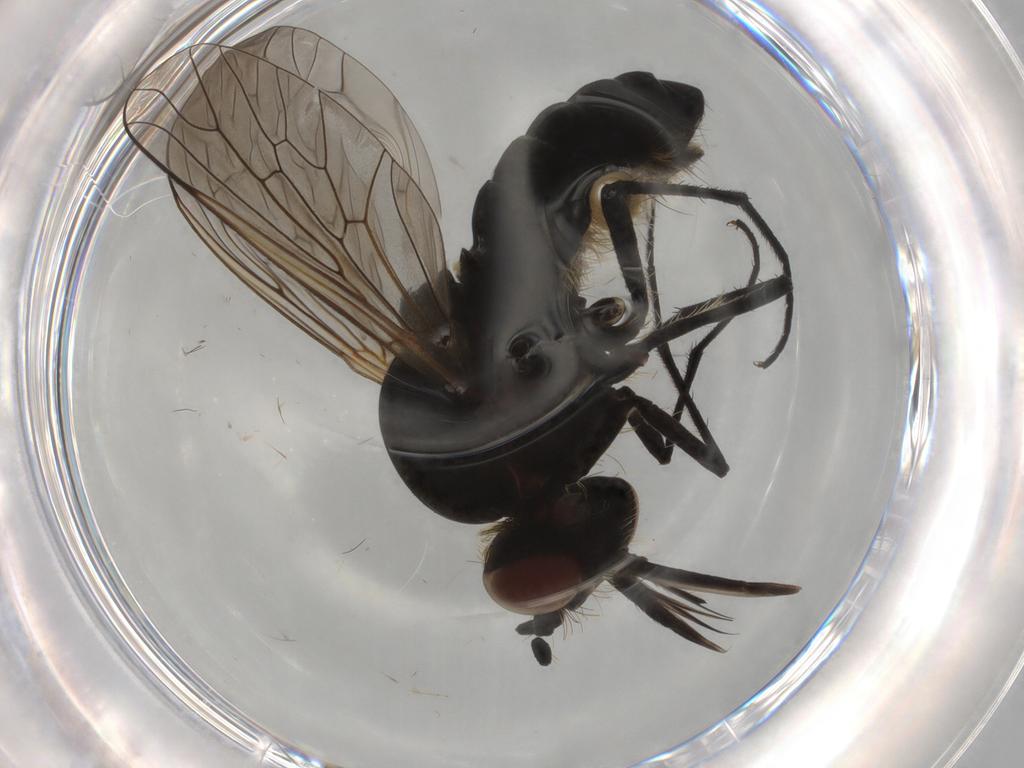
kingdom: Animalia
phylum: Arthropoda
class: Insecta
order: Diptera
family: Bombyliidae
